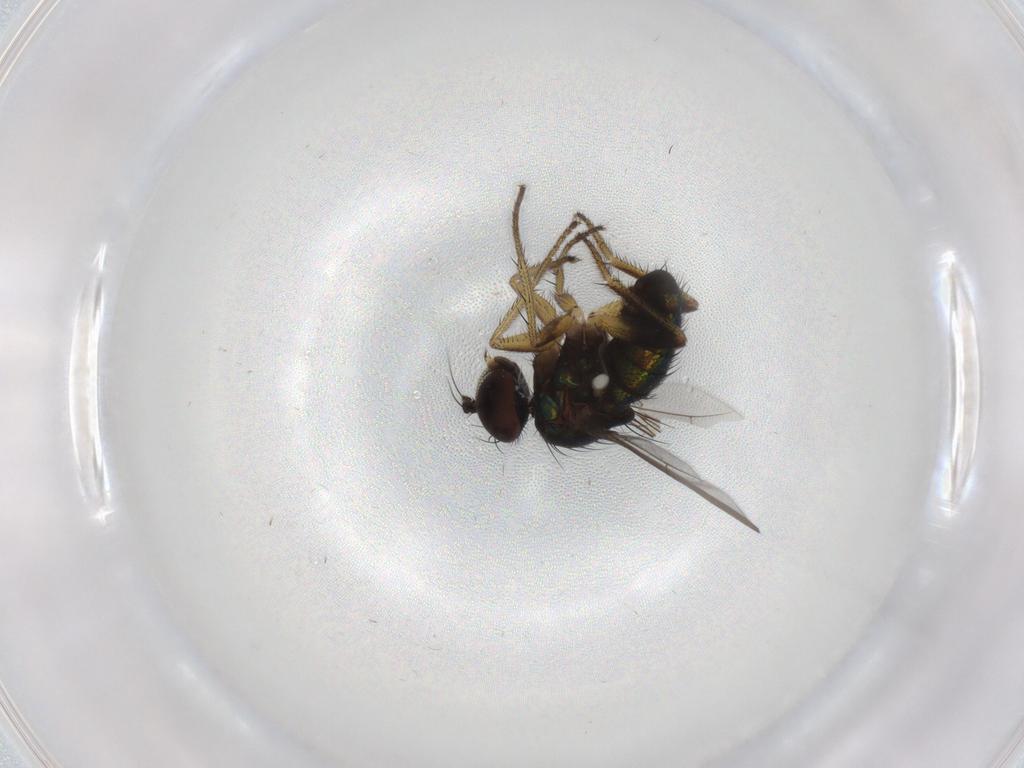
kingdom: Animalia
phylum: Arthropoda
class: Insecta
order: Diptera
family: Dolichopodidae
